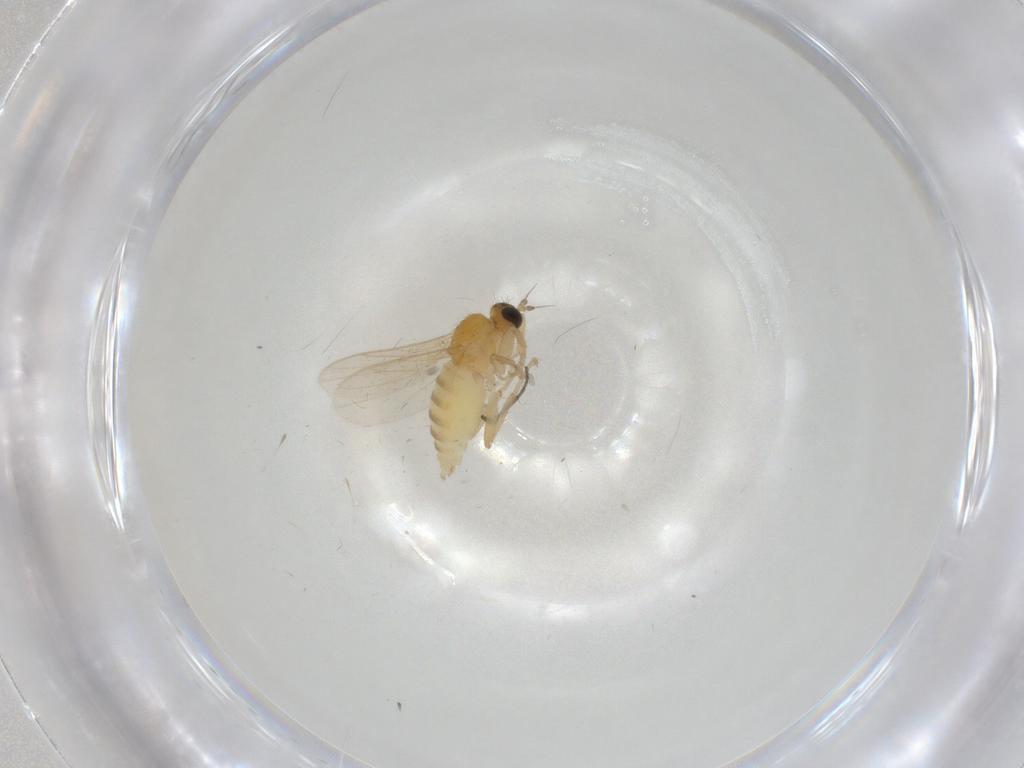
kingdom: Animalia
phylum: Arthropoda
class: Insecta
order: Diptera
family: Hybotidae
